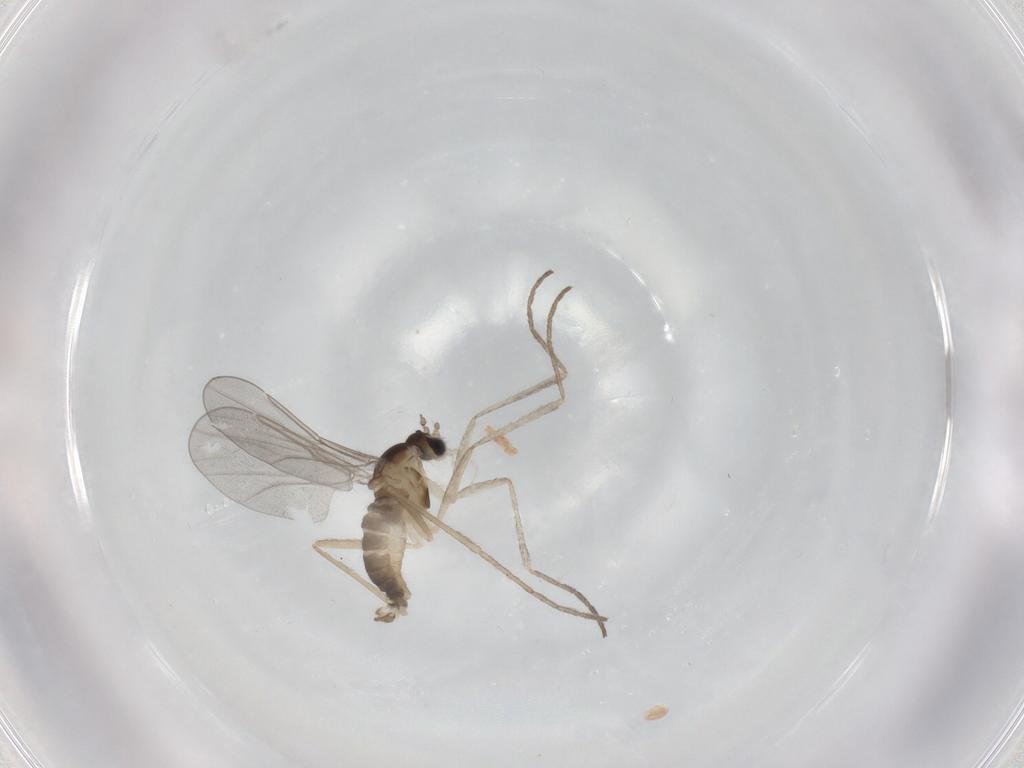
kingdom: Animalia
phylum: Arthropoda
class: Insecta
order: Diptera
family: Cecidomyiidae
